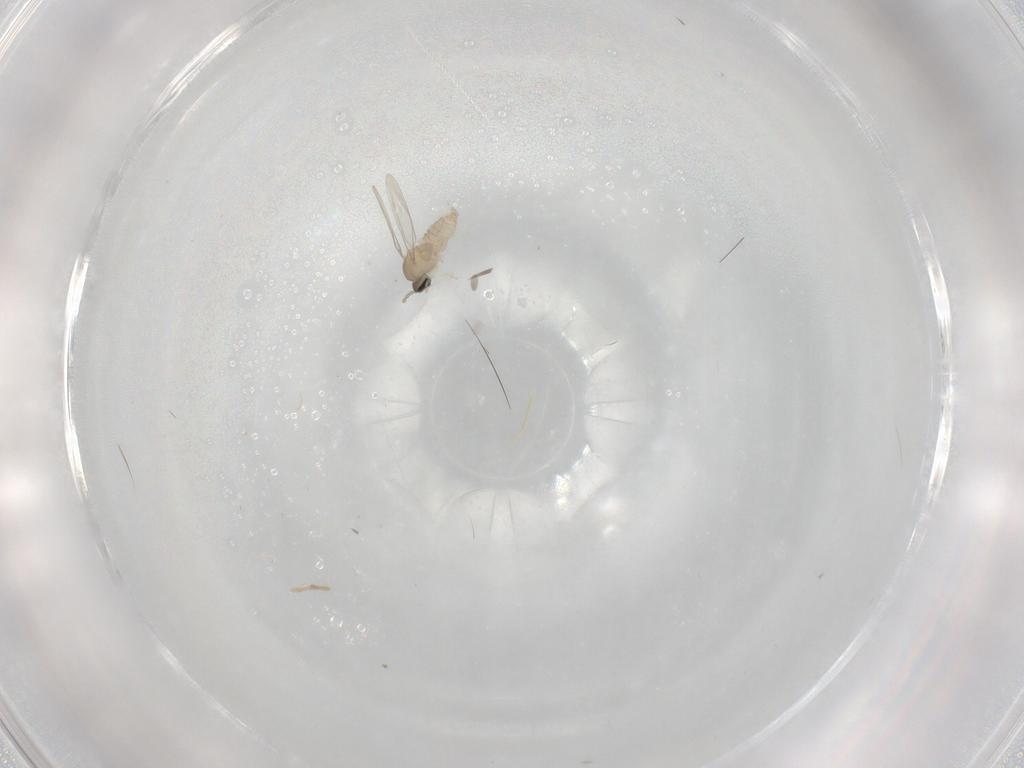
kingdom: Animalia
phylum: Arthropoda
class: Insecta
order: Diptera
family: Cecidomyiidae
